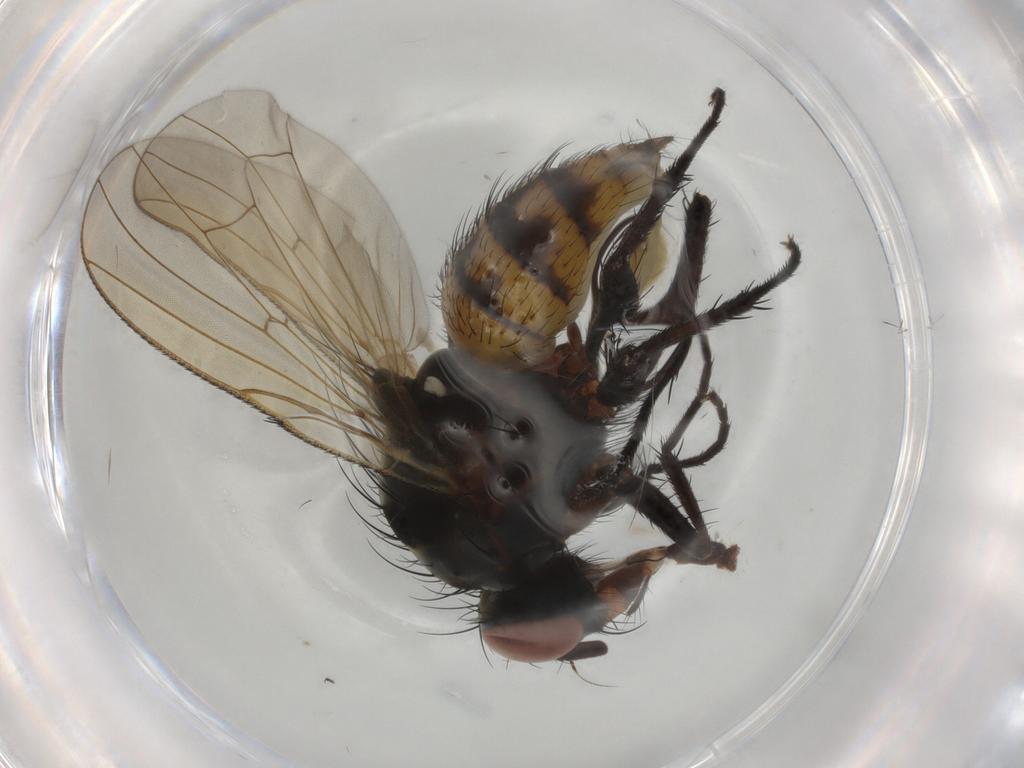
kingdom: Animalia
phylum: Arthropoda
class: Insecta
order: Diptera
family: Anthomyiidae
